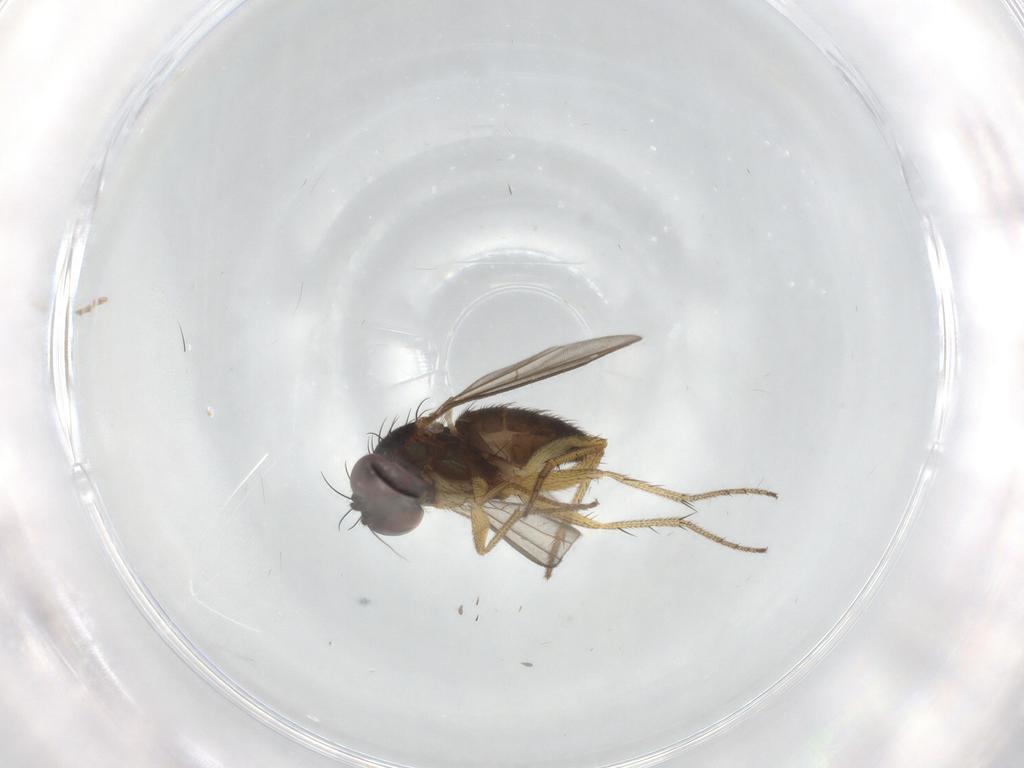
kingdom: Animalia
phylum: Arthropoda
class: Insecta
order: Diptera
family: Dolichopodidae
